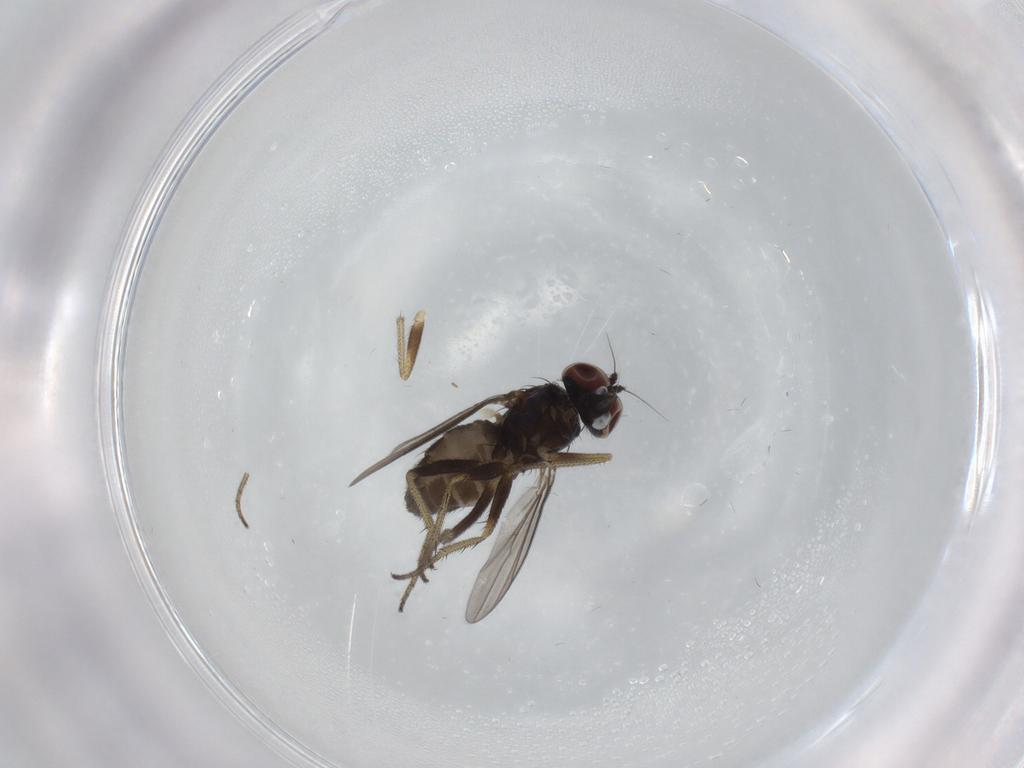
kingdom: Animalia
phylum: Arthropoda
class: Insecta
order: Diptera
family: Dolichopodidae
